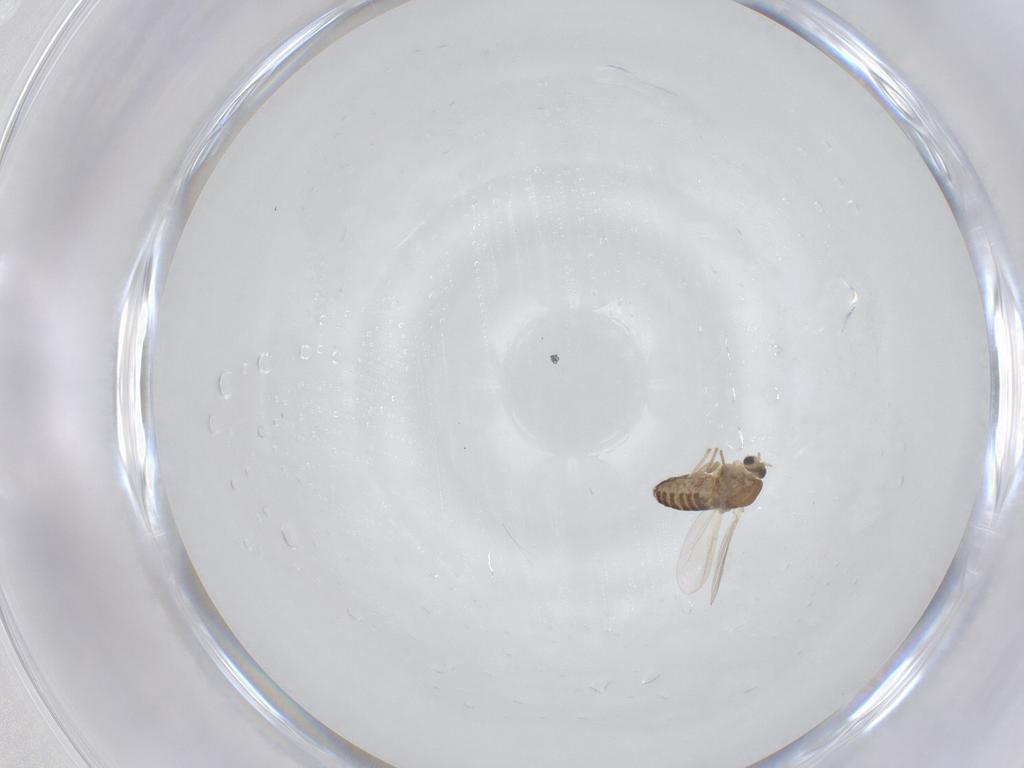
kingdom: Animalia
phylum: Arthropoda
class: Insecta
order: Diptera
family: Chironomidae
